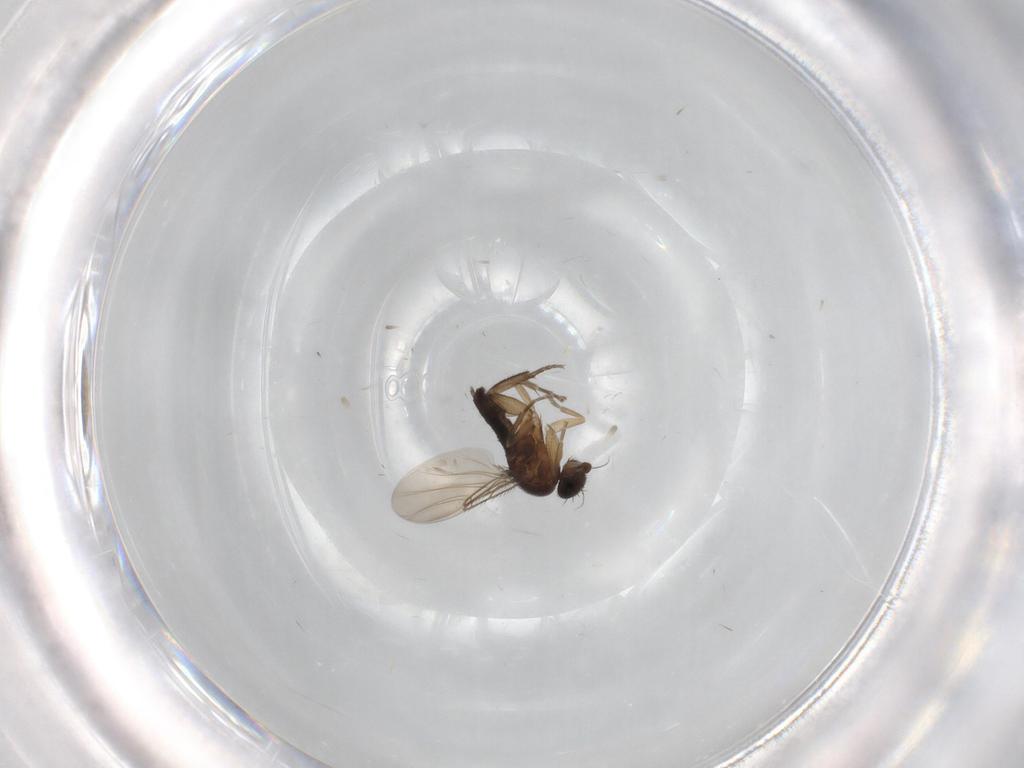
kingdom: Animalia
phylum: Arthropoda
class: Insecta
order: Diptera
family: Phoridae
